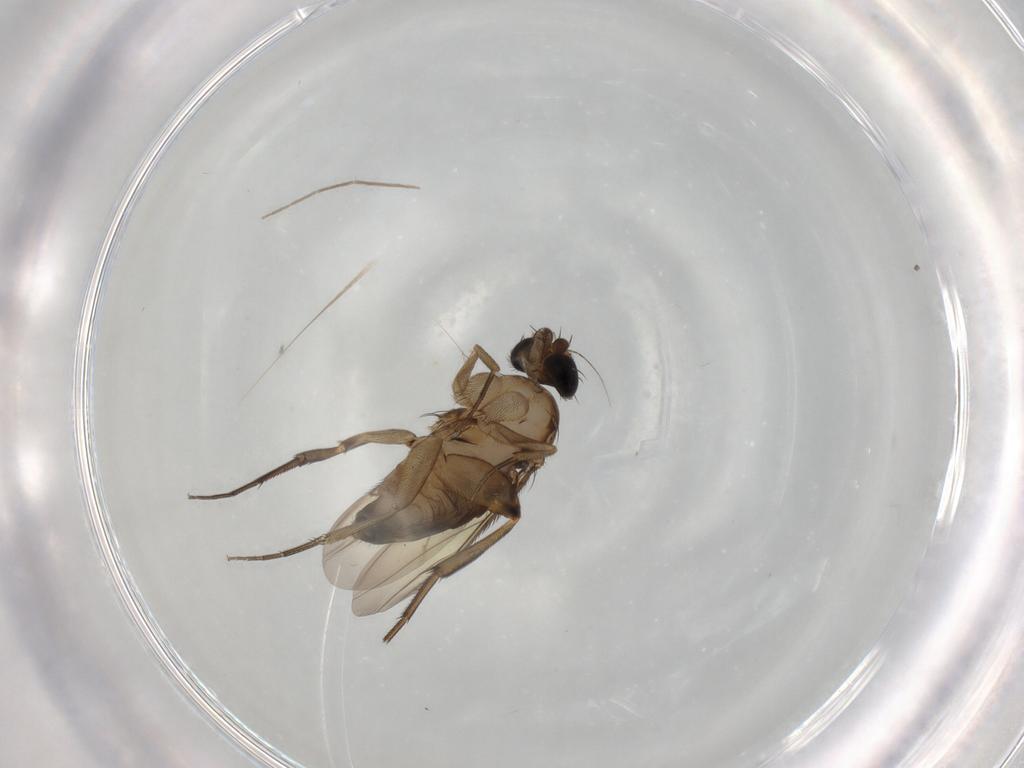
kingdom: Animalia
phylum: Arthropoda
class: Insecta
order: Diptera
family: Phoridae
